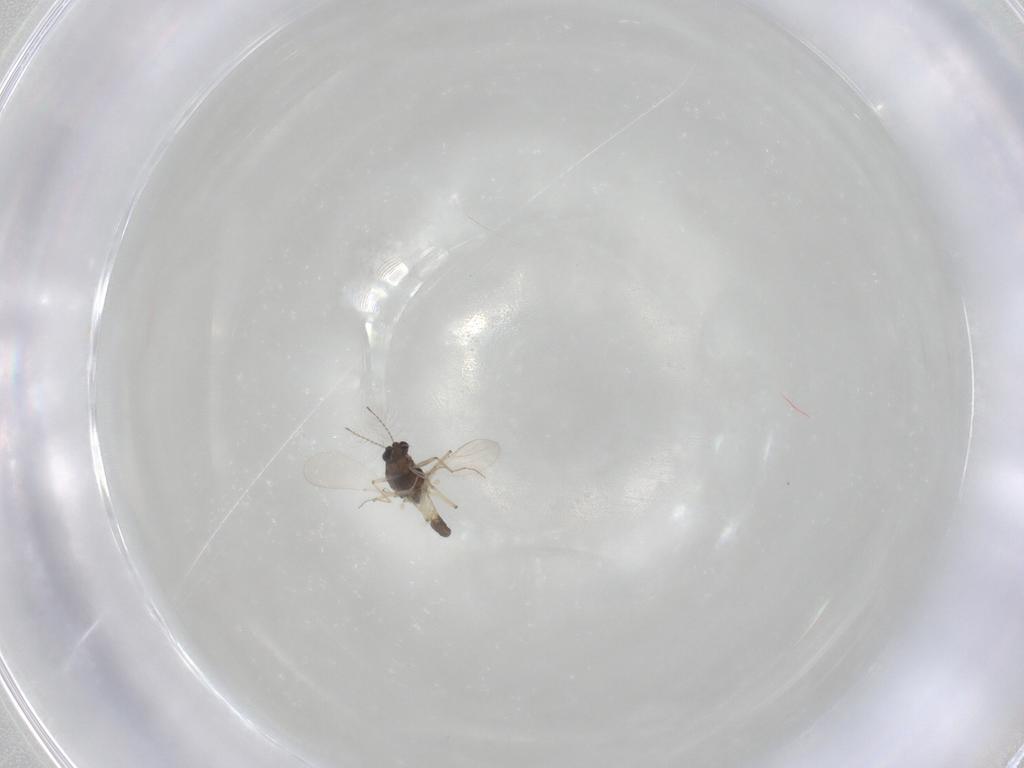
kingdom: Animalia
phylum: Arthropoda
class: Insecta
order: Diptera
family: Chironomidae
